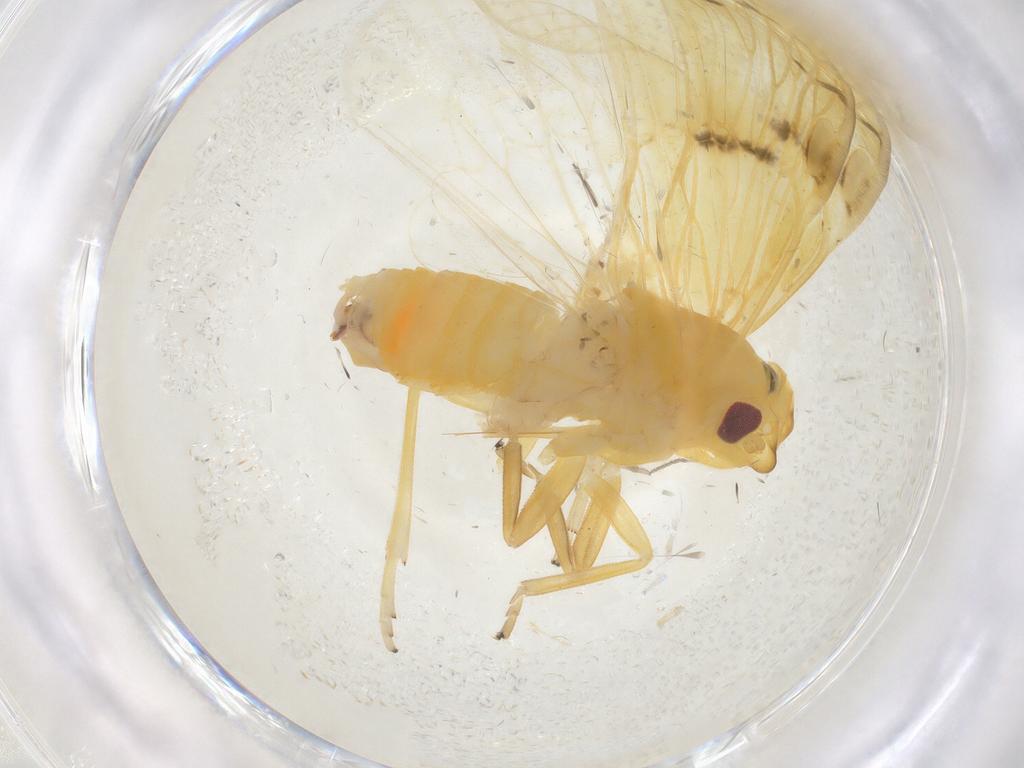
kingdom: Animalia
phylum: Arthropoda
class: Insecta
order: Hemiptera
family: Cixiidae
